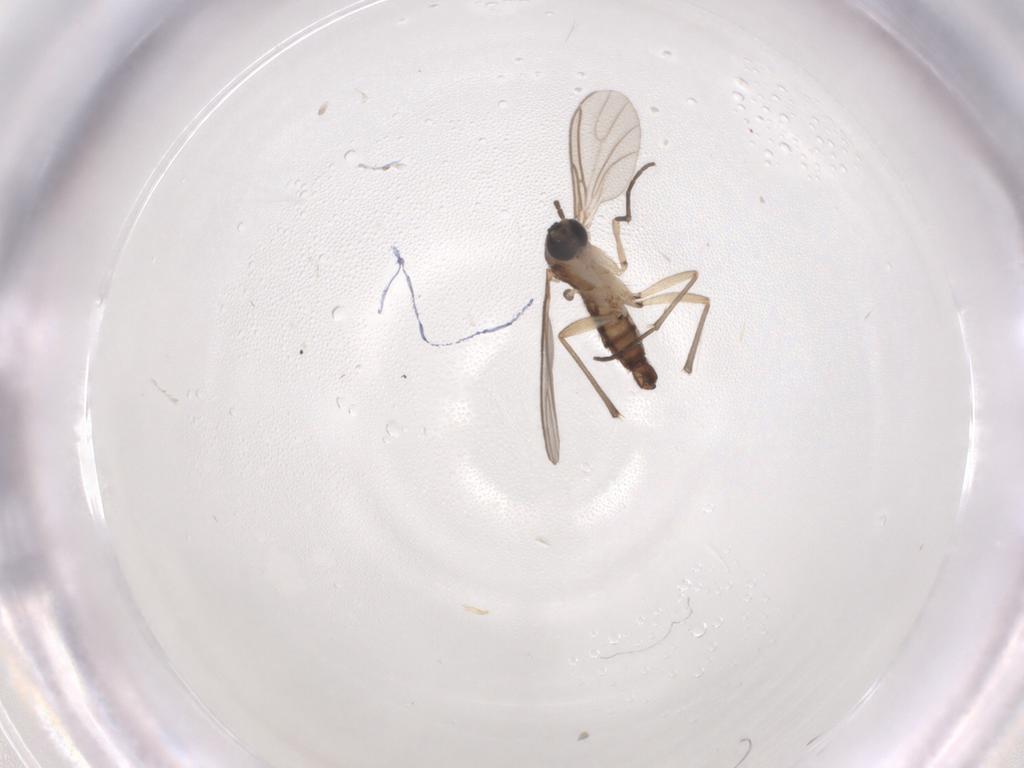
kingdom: Animalia
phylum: Arthropoda
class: Insecta
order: Diptera
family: Sciaridae
